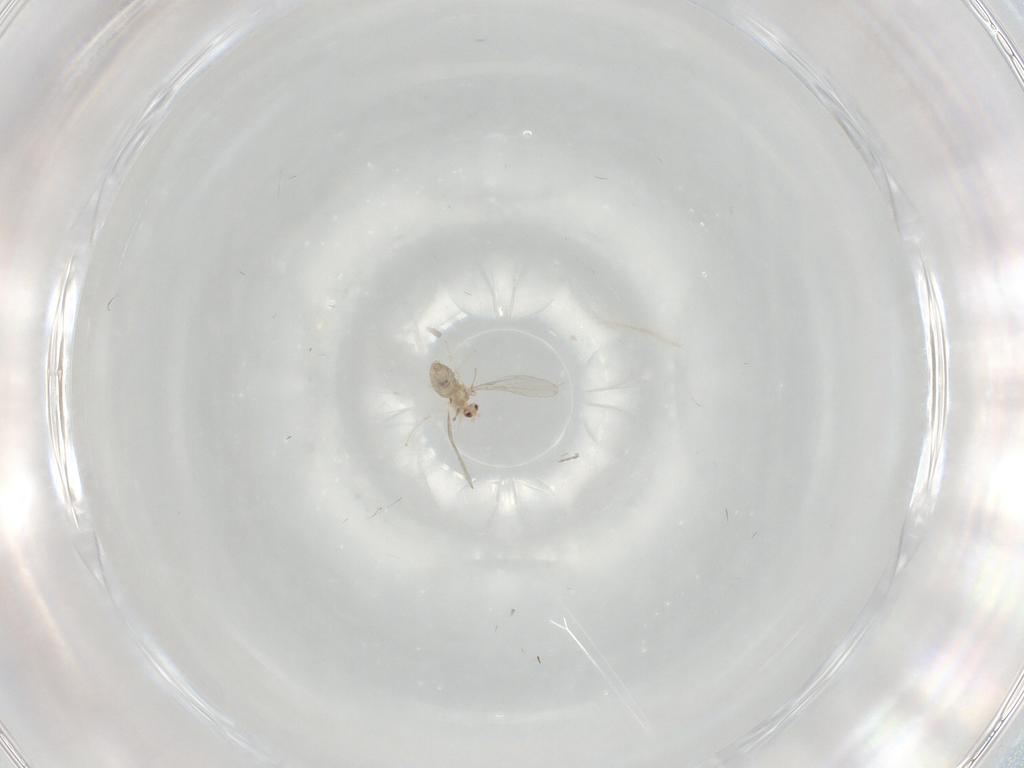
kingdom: Animalia
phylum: Arthropoda
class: Insecta
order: Diptera
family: Cecidomyiidae
